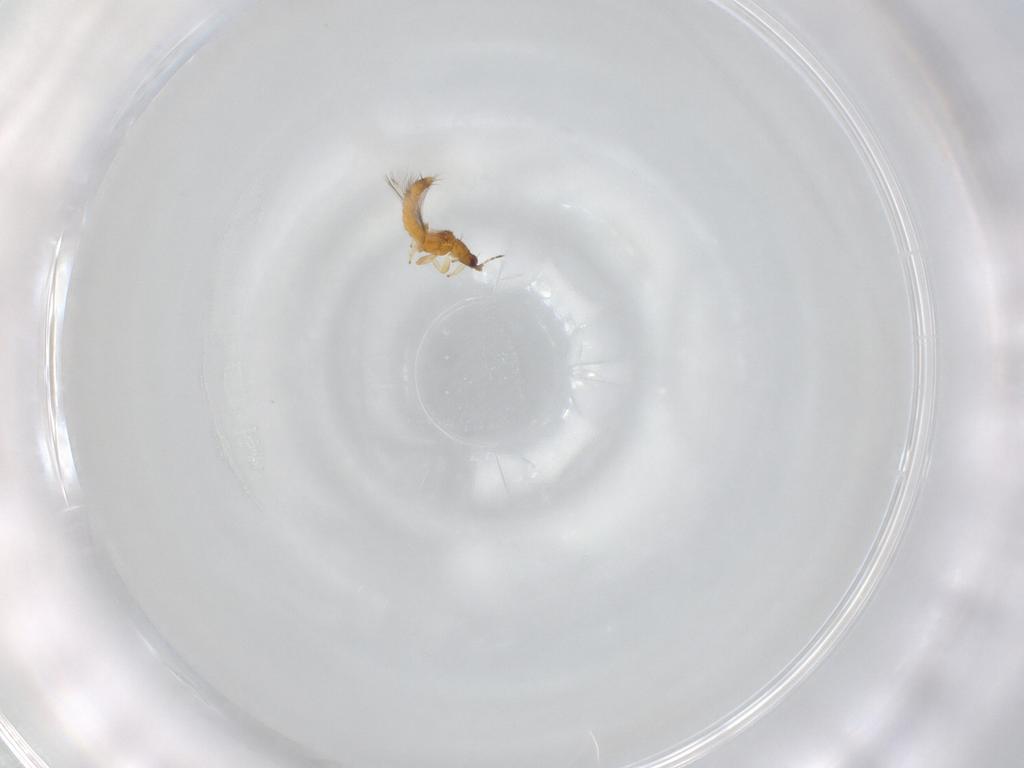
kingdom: Animalia
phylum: Arthropoda
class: Insecta
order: Thysanoptera
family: Thripidae
